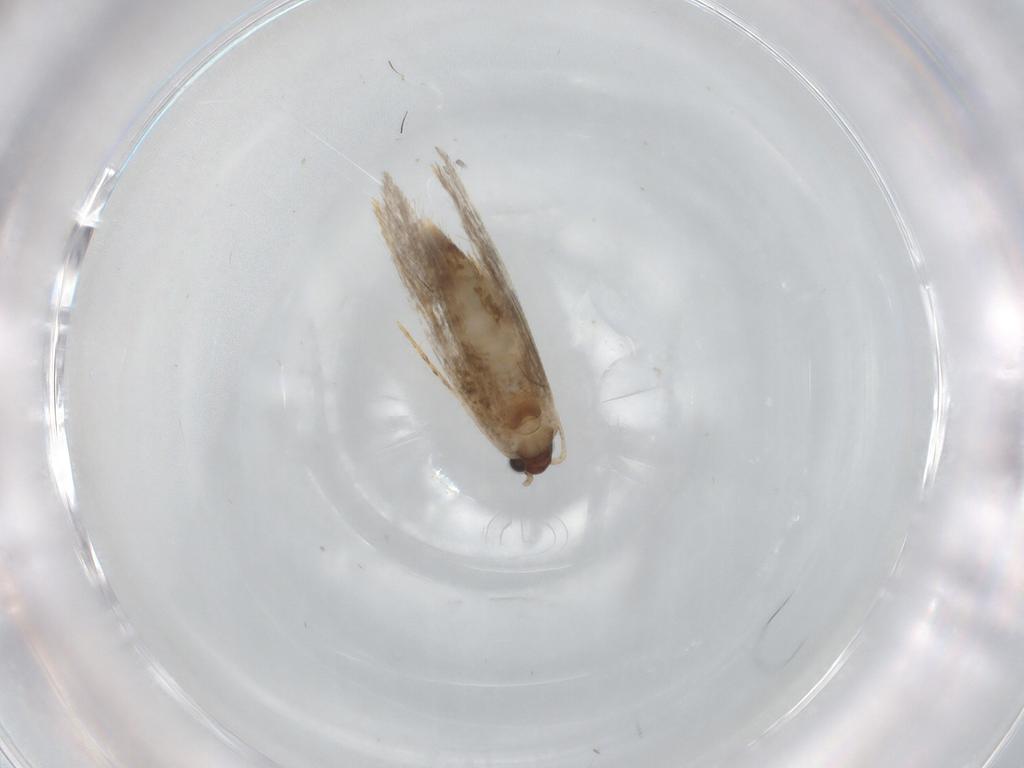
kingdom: Animalia
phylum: Arthropoda
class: Insecta
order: Lepidoptera
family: Tineidae
